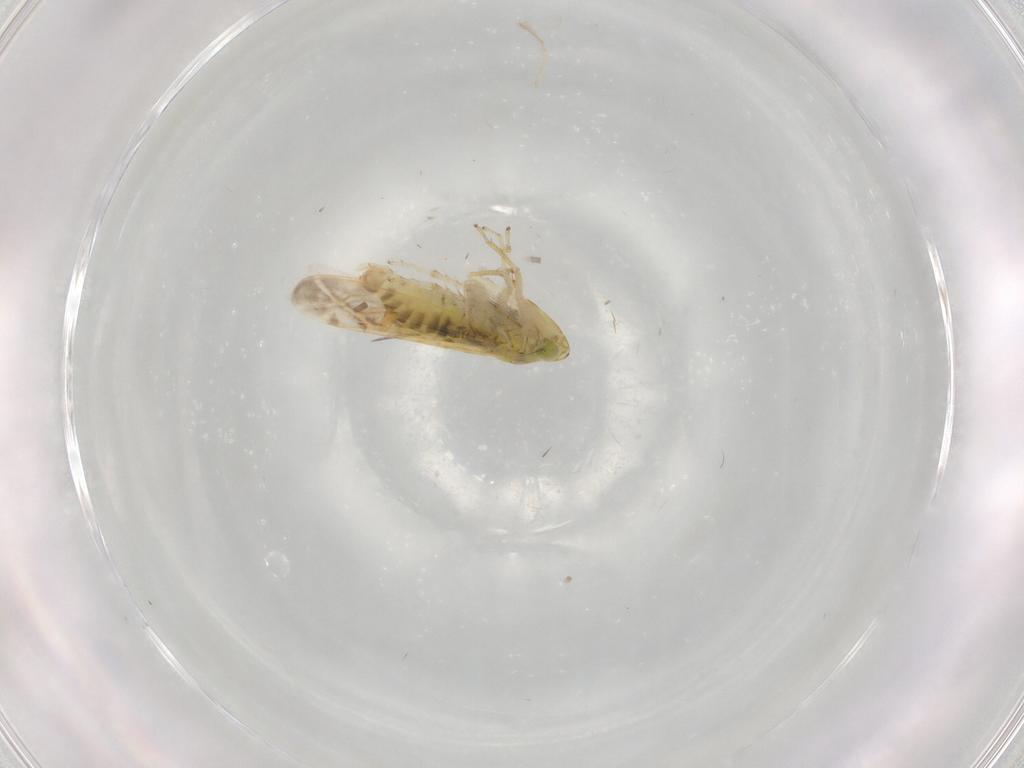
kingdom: Animalia
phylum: Arthropoda
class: Insecta
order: Hemiptera
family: Cicadellidae
